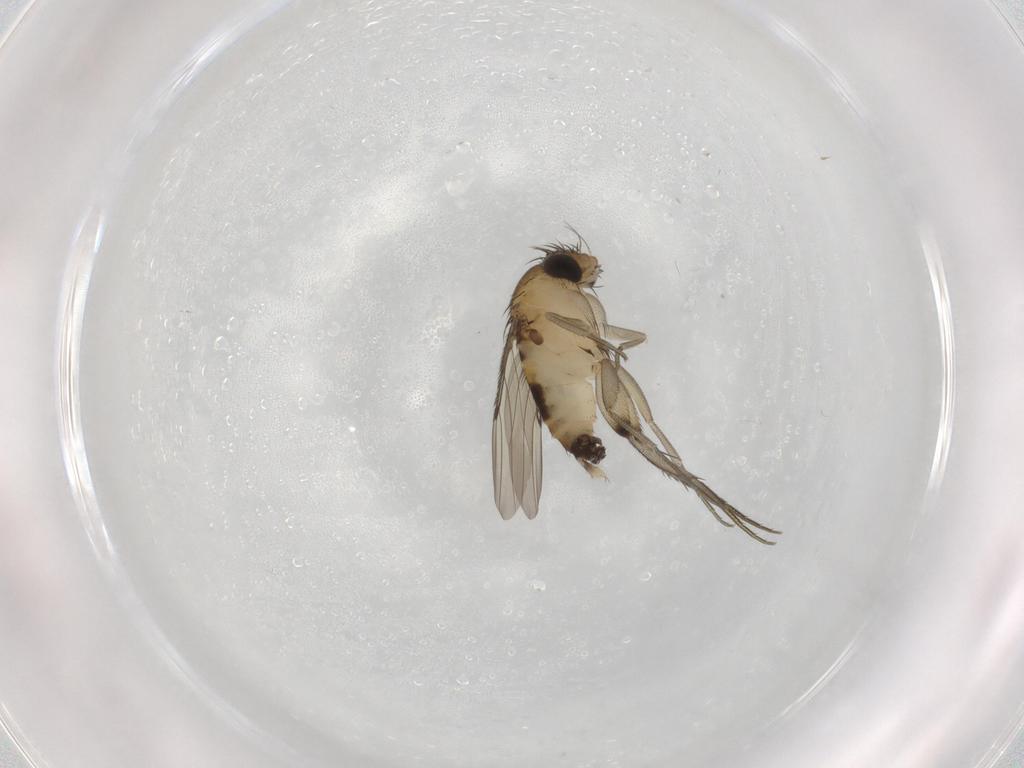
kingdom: Animalia
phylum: Arthropoda
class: Insecta
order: Diptera
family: Phoridae
